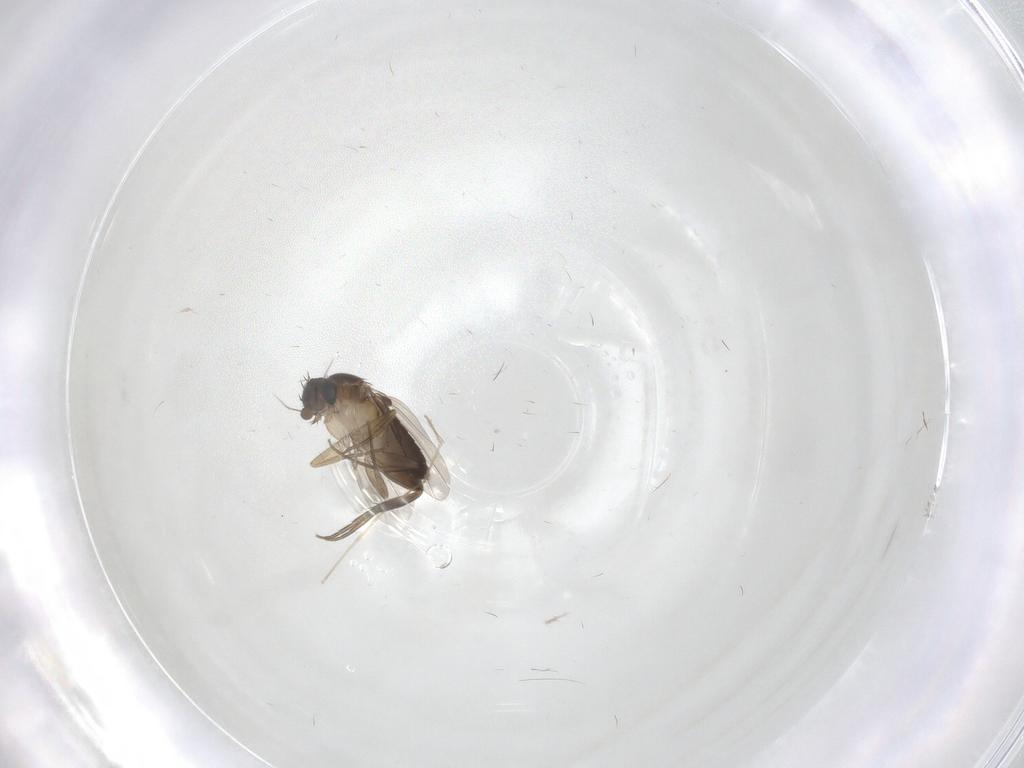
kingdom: Animalia
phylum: Arthropoda
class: Insecta
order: Diptera
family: Phoridae
